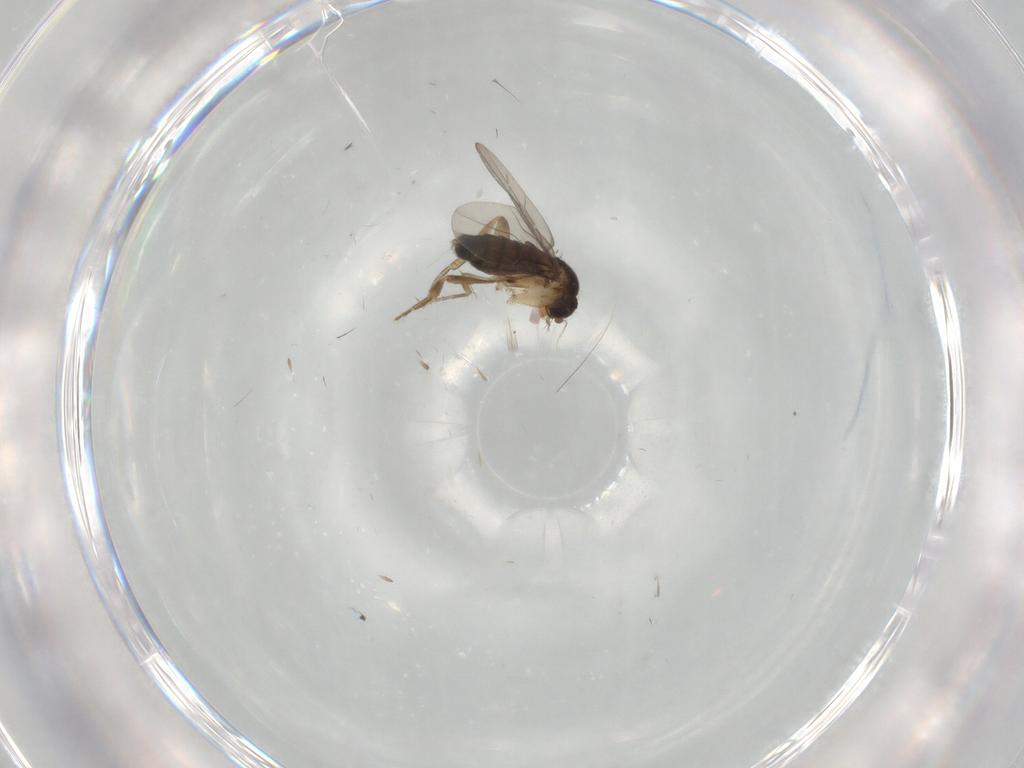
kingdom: Animalia
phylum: Arthropoda
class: Insecta
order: Diptera
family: Phoridae
